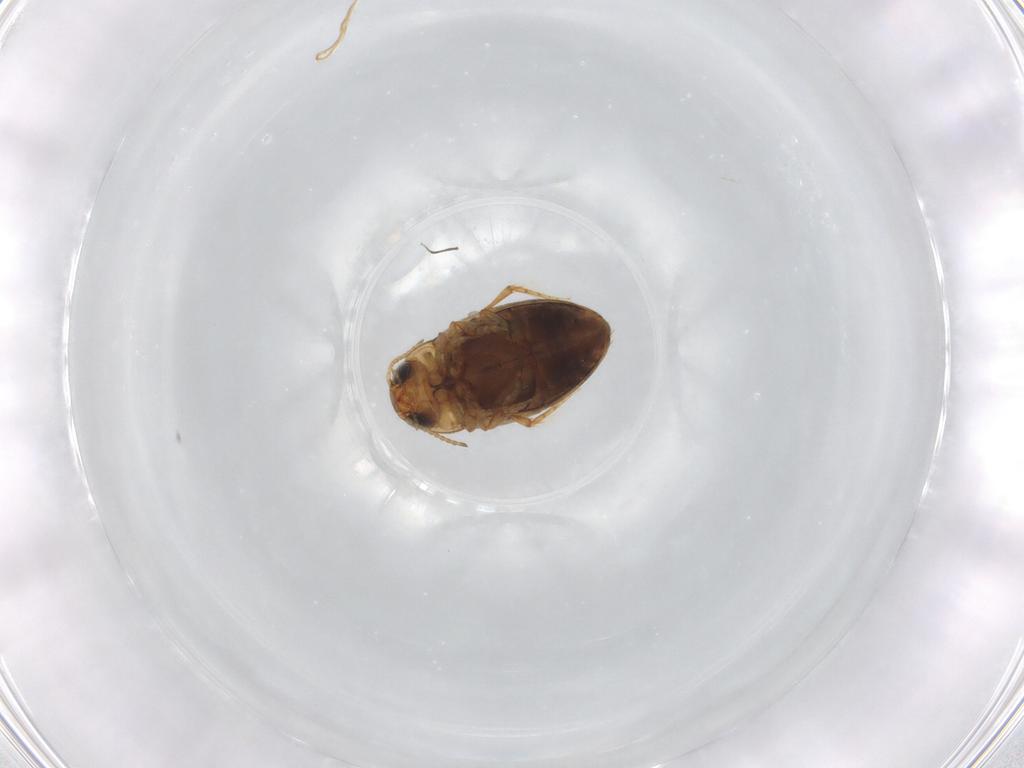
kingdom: Animalia
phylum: Arthropoda
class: Insecta
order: Coleoptera
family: Dytiscidae
